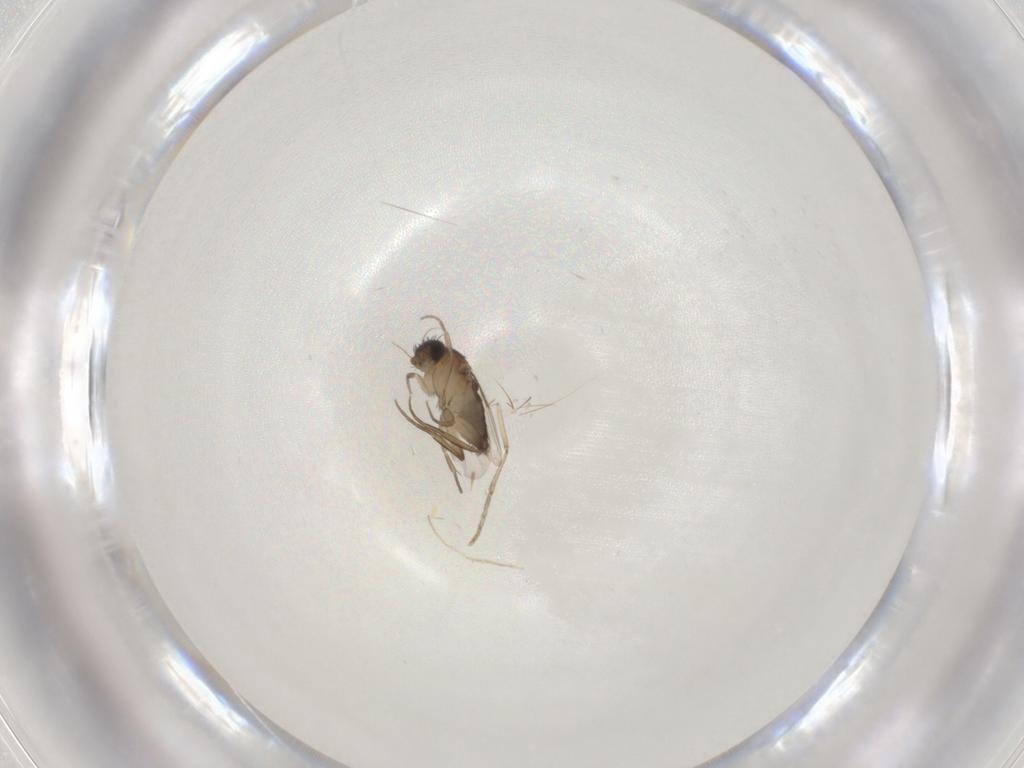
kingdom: Animalia
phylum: Arthropoda
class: Insecta
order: Diptera
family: Phoridae
